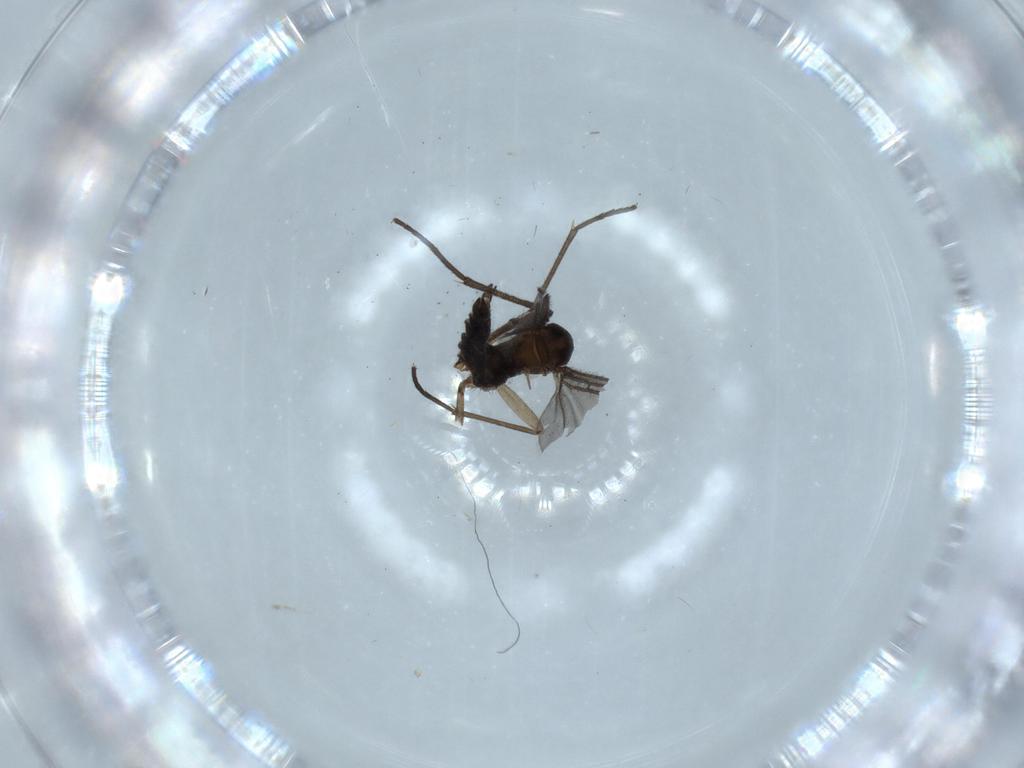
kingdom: Animalia
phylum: Arthropoda
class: Insecta
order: Diptera
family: Sciaridae
